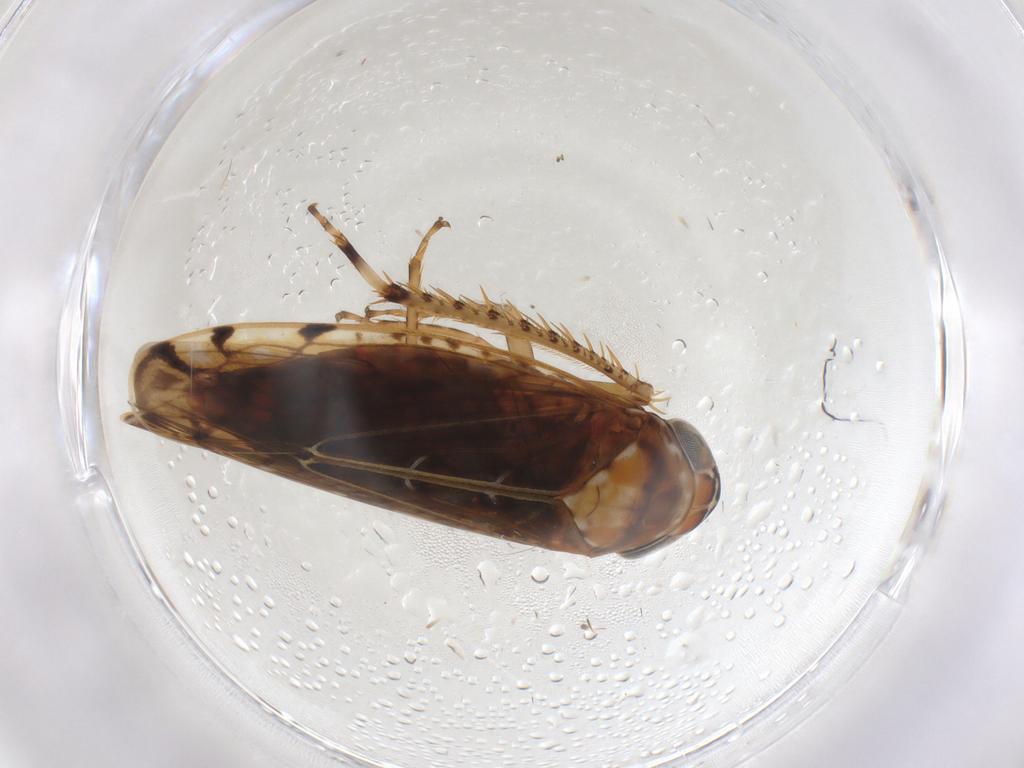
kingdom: Animalia
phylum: Arthropoda
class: Insecta
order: Hemiptera
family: Cicadellidae
